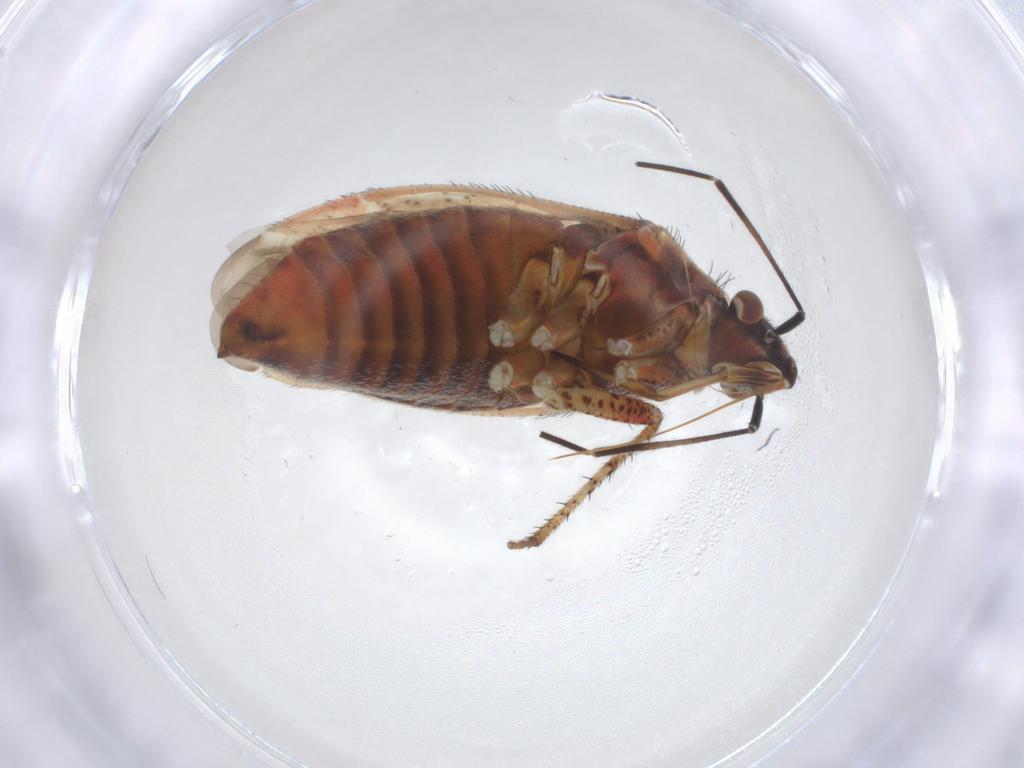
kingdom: Animalia
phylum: Arthropoda
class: Insecta
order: Hemiptera
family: Miridae
